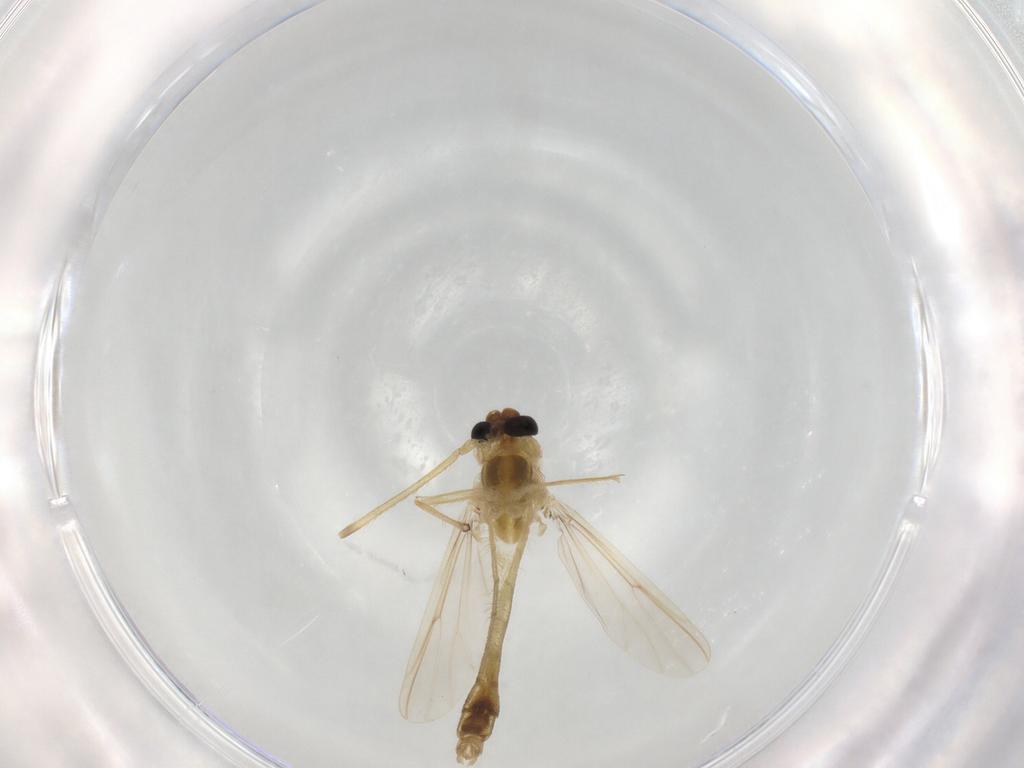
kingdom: Animalia
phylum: Arthropoda
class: Insecta
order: Diptera
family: Chironomidae
